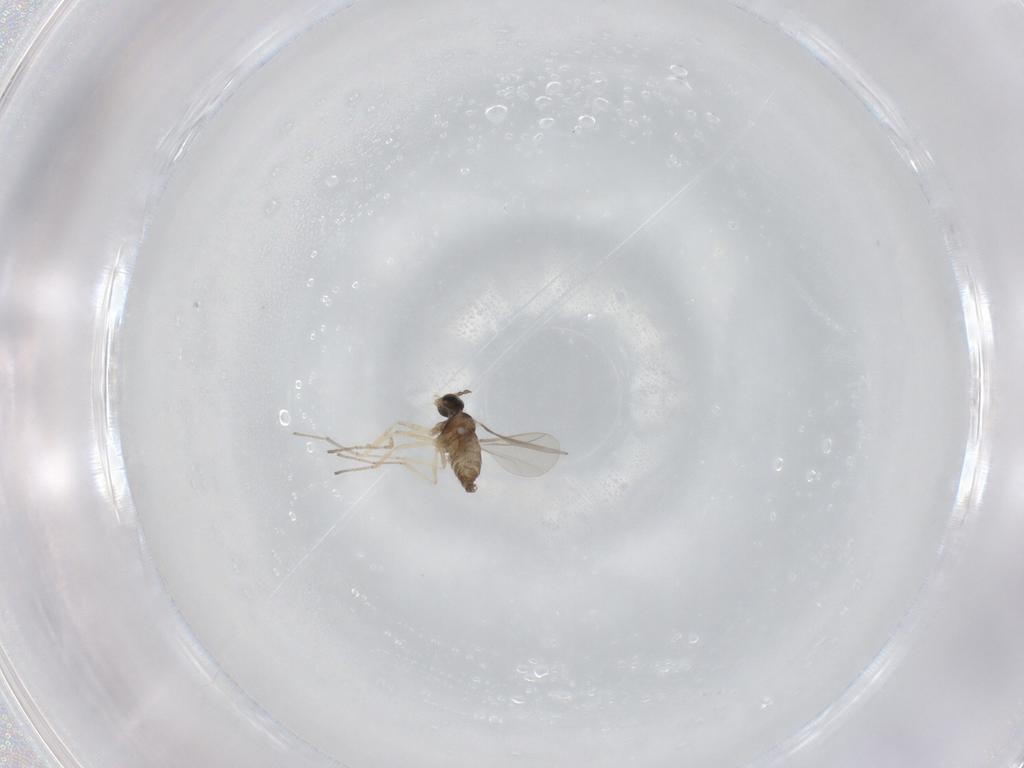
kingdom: Animalia
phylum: Arthropoda
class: Insecta
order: Diptera
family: Cecidomyiidae
